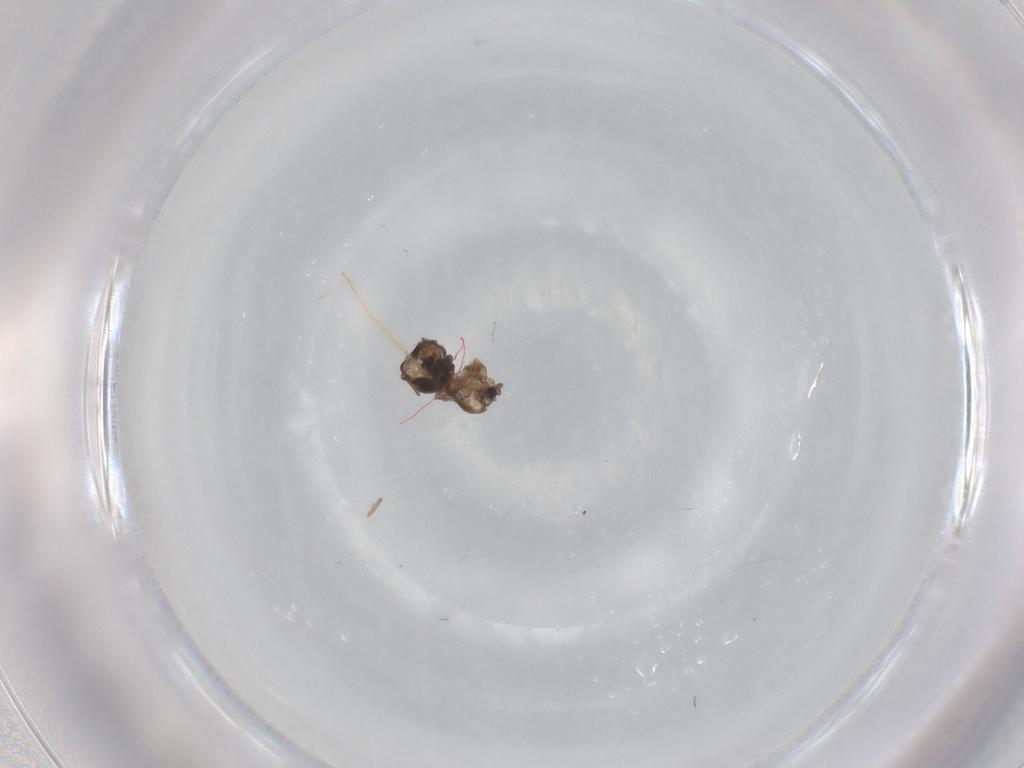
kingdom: Animalia
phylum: Arthropoda
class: Insecta
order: Diptera
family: Chironomidae
